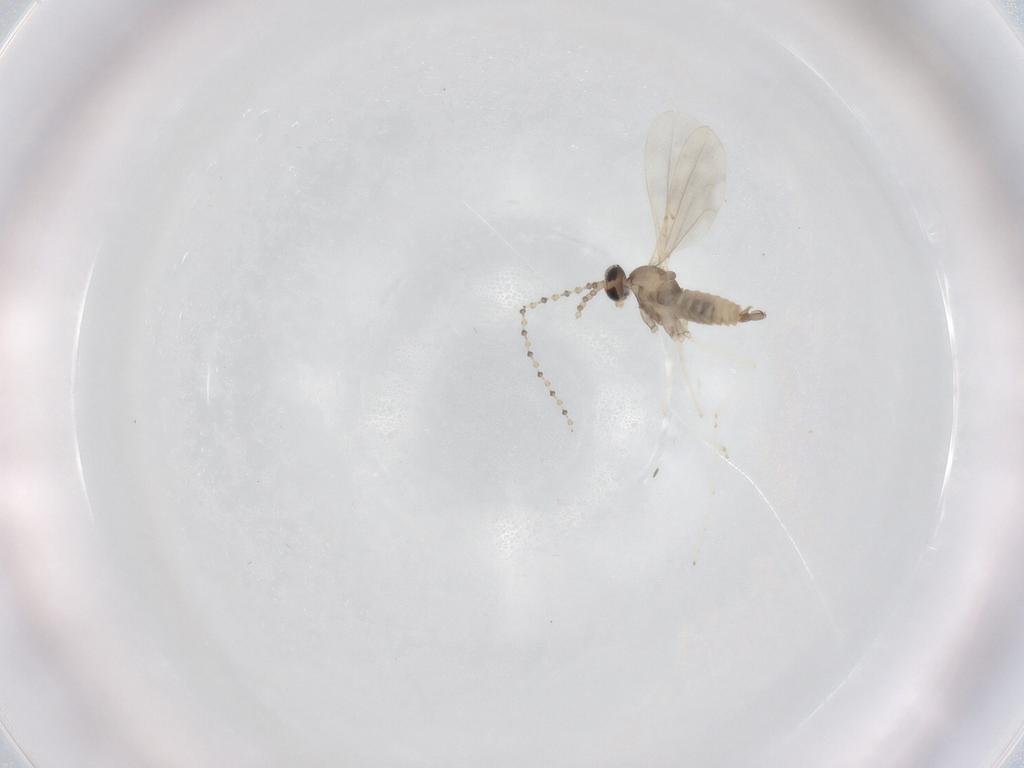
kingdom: Animalia
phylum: Arthropoda
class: Insecta
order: Diptera
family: Cecidomyiidae
